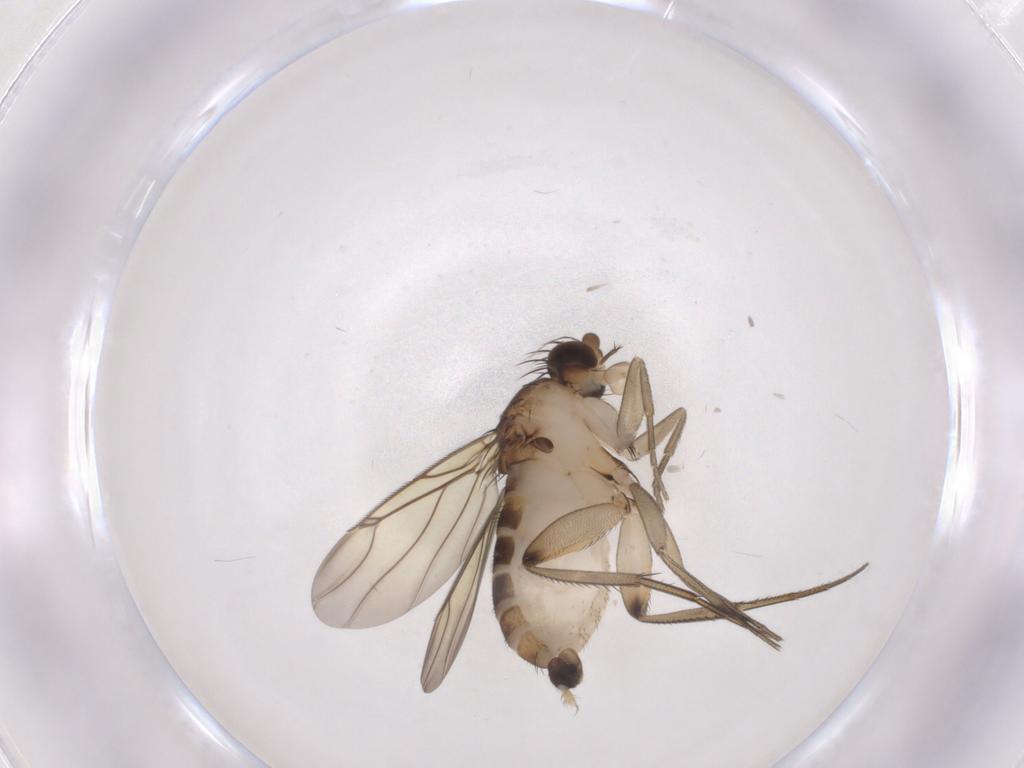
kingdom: Animalia
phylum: Arthropoda
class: Insecta
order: Diptera
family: Phoridae
